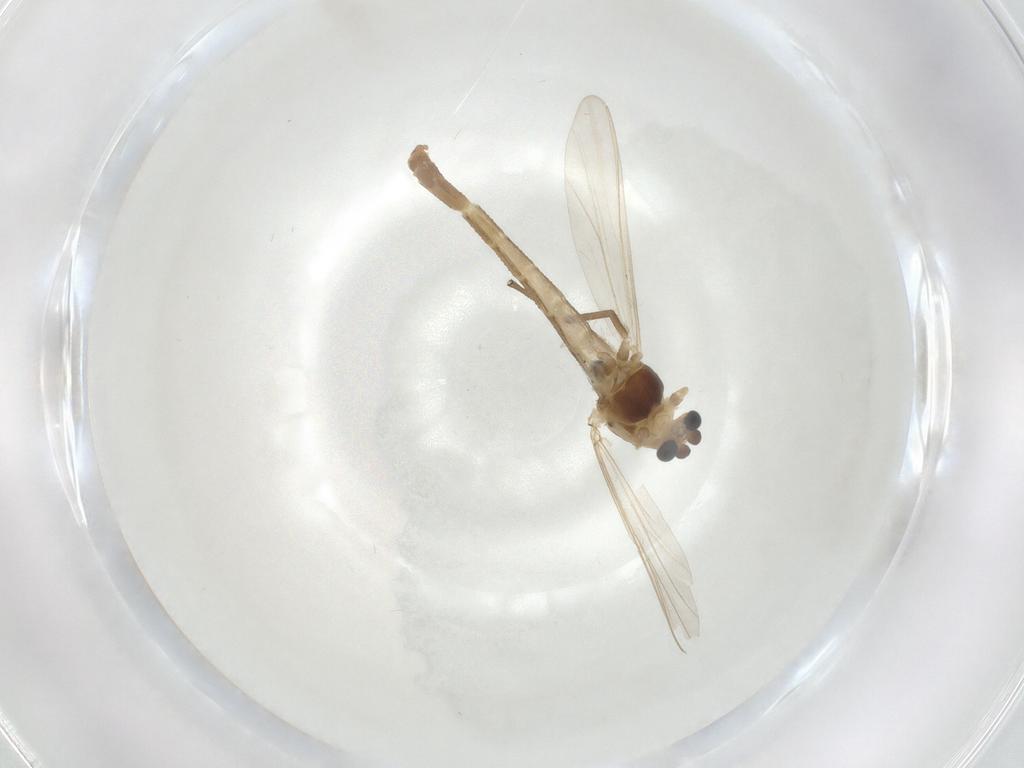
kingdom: Animalia
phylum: Arthropoda
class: Insecta
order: Diptera
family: Chironomidae
